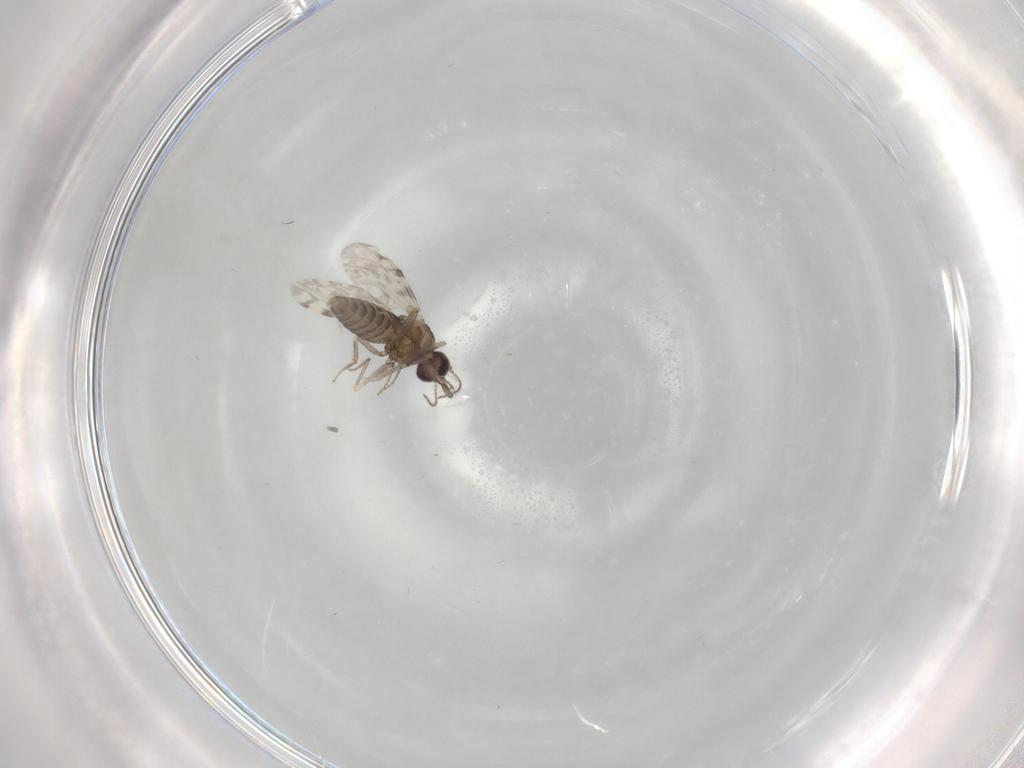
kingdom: Animalia
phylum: Arthropoda
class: Insecta
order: Diptera
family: Ceratopogonidae
